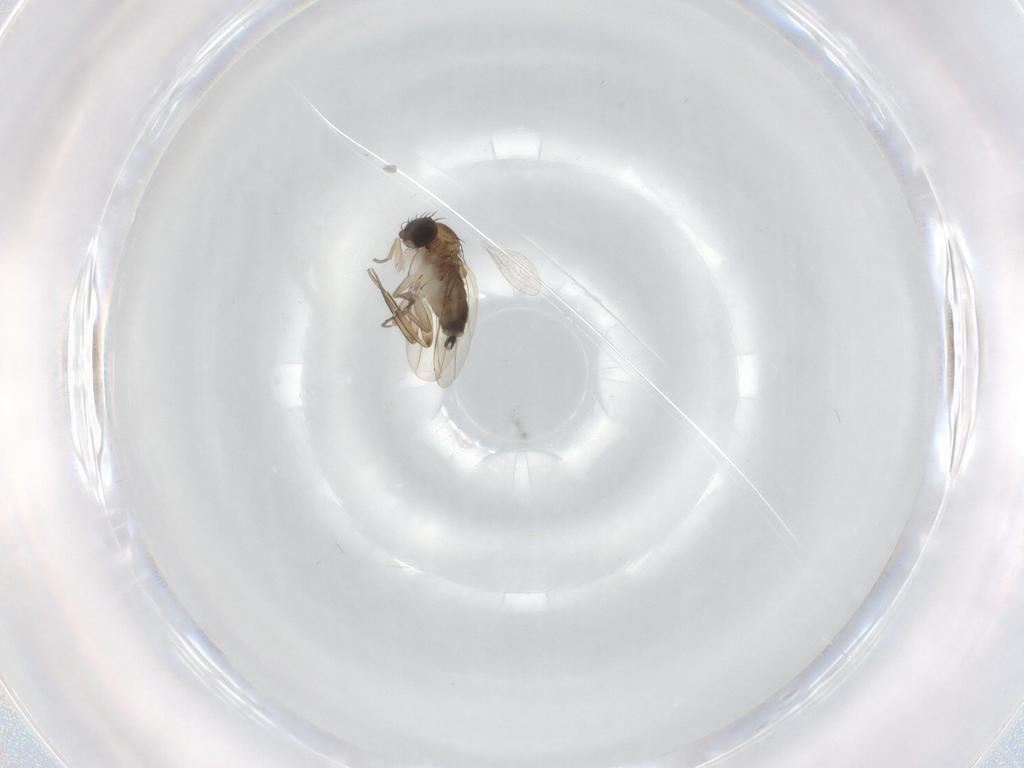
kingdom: Animalia
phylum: Arthropoda
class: Insecta
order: Diptera
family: Phoridae
